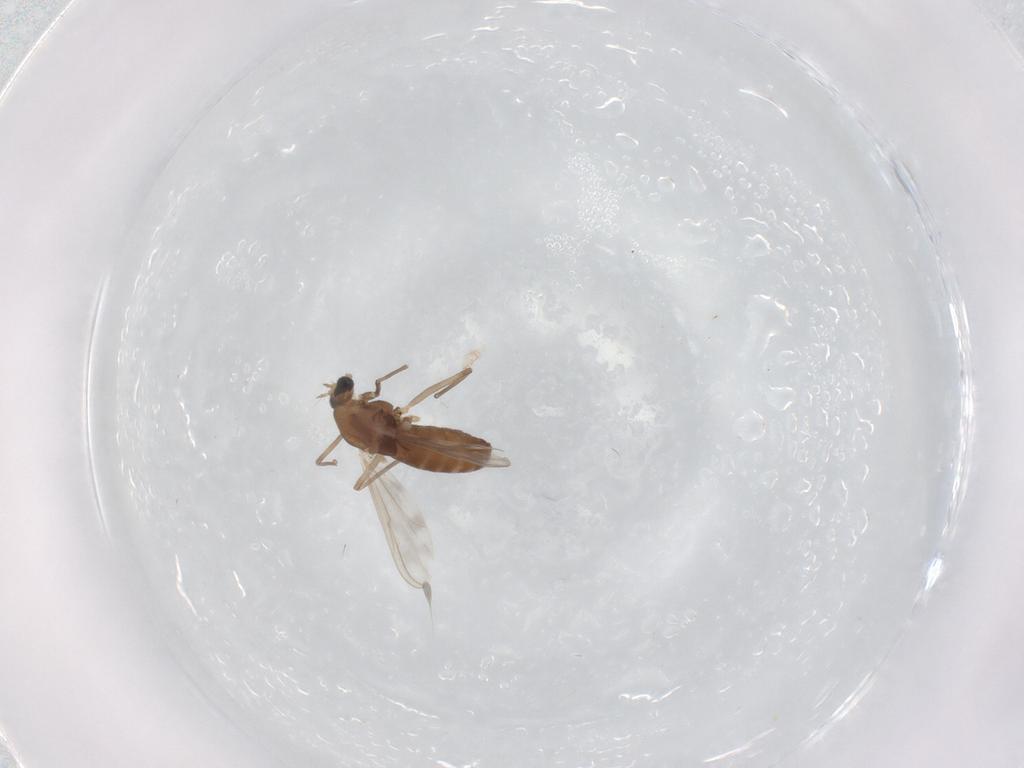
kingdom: Animalia
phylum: Arthropoda
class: Insecta
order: Diptera
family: Chironomidae
